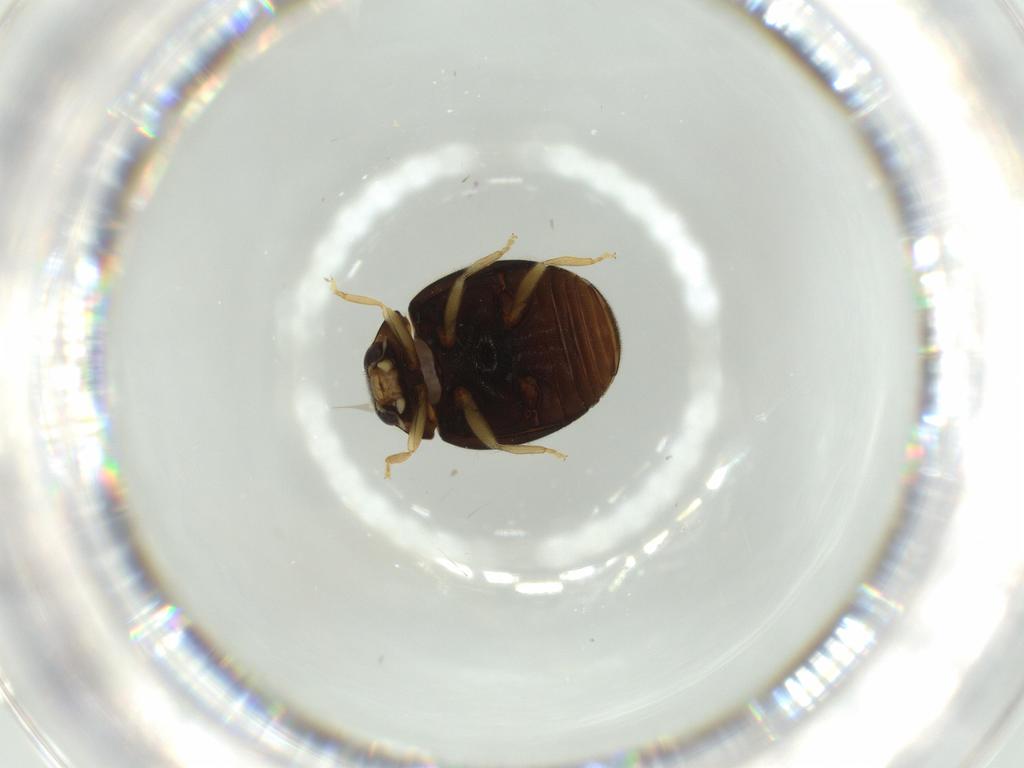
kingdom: Animalia
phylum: Arthropoda
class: Insecta
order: Coleoptera
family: Coccinellidae
